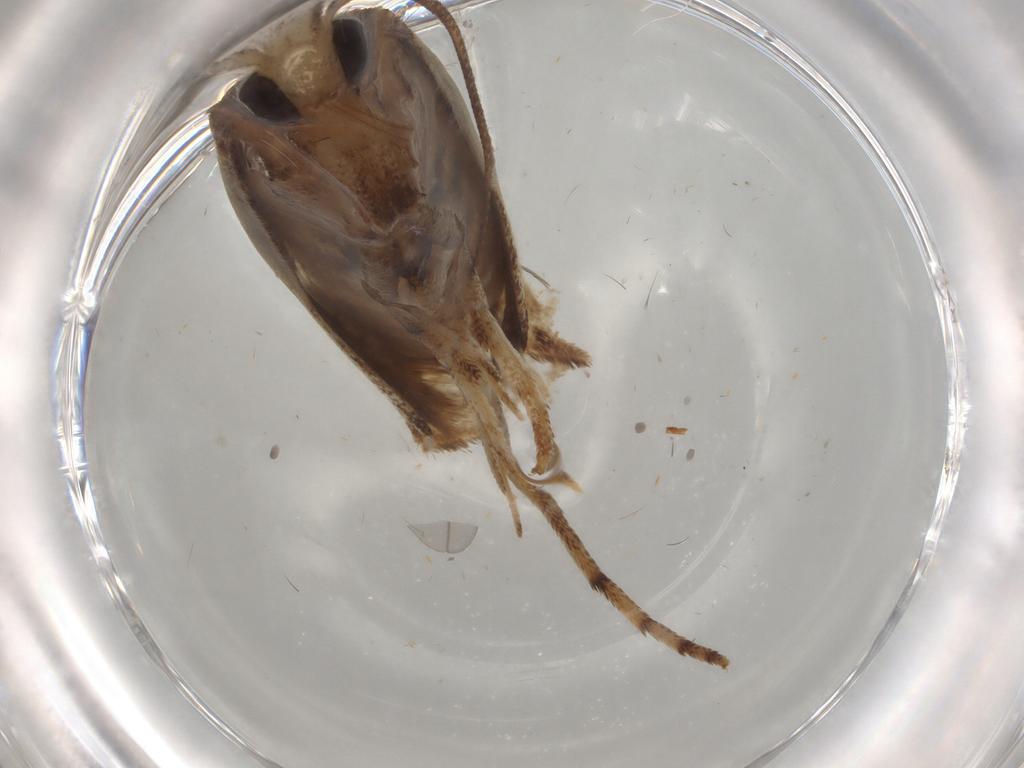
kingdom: Animalia
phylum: Arthropoda
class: Insecta
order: Lepidoptera
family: Yponomeutidae
